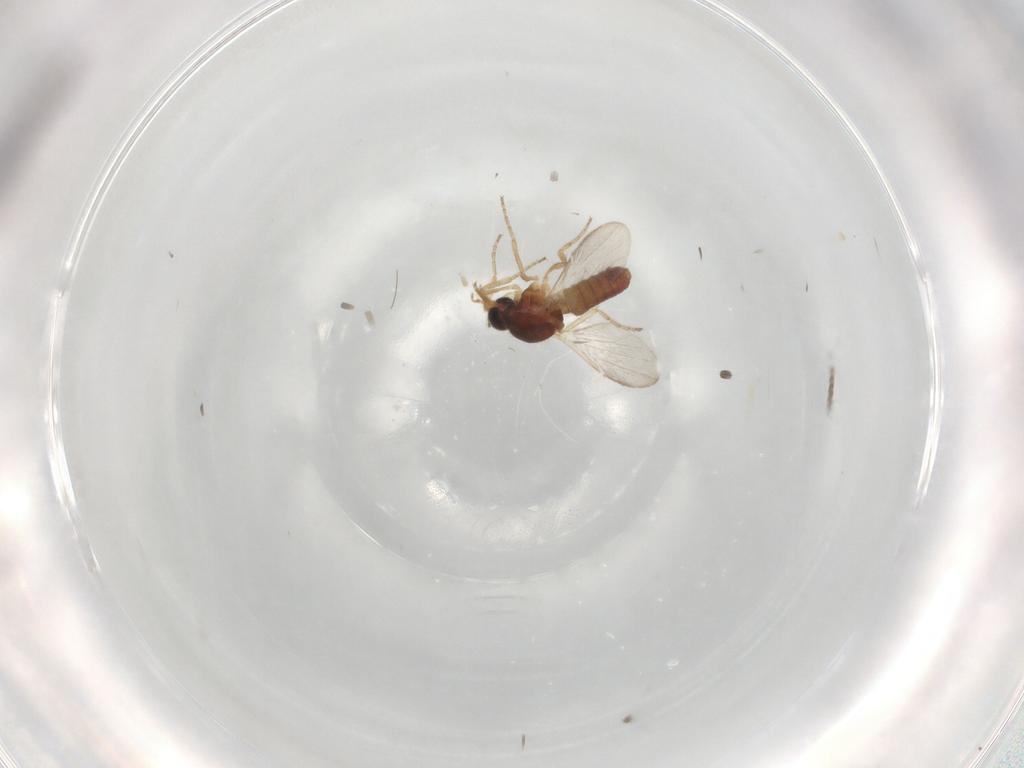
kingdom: Animalia
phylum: Arthropoda
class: Insecta
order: Diptera
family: Ceratopogonidae
